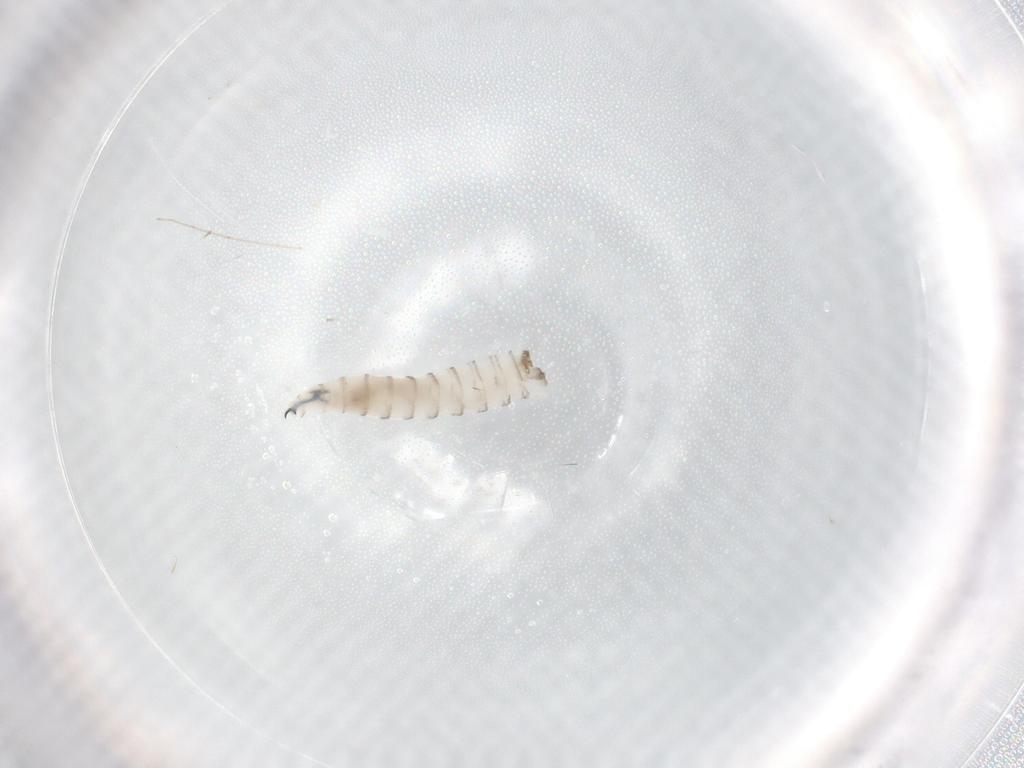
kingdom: Animalia
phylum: Arthropoda
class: Insecta
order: Diptera
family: Sarcophagidae
